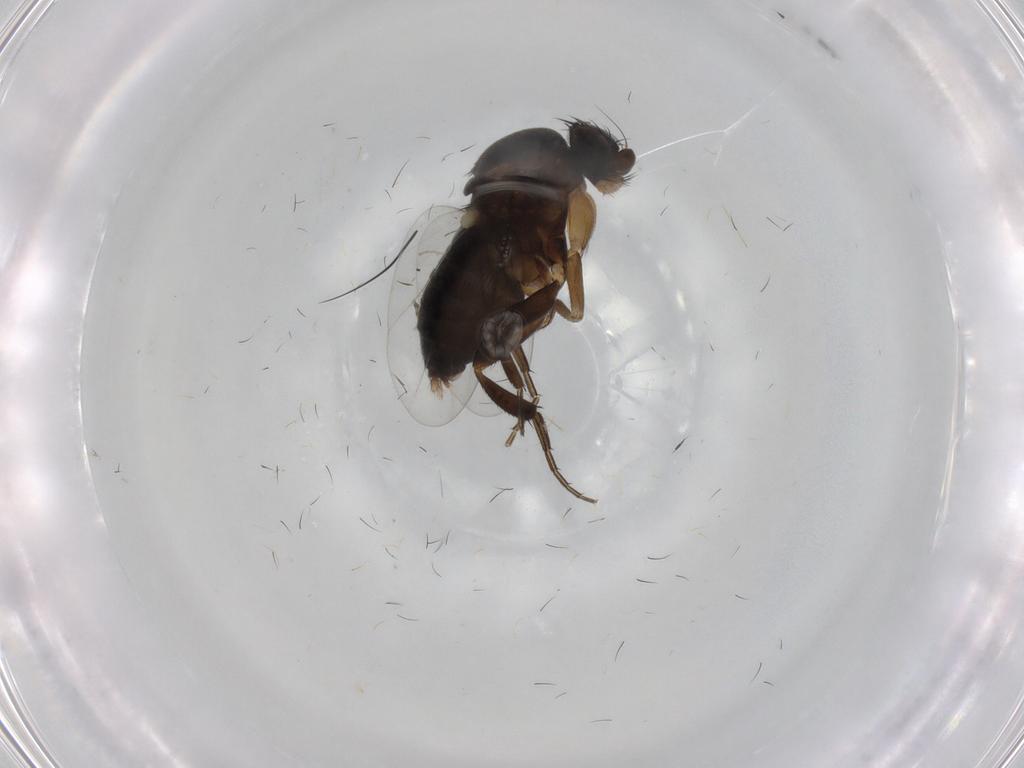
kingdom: Animalia
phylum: Arthropoda
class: Insecta
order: Diptera
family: Phoridae
